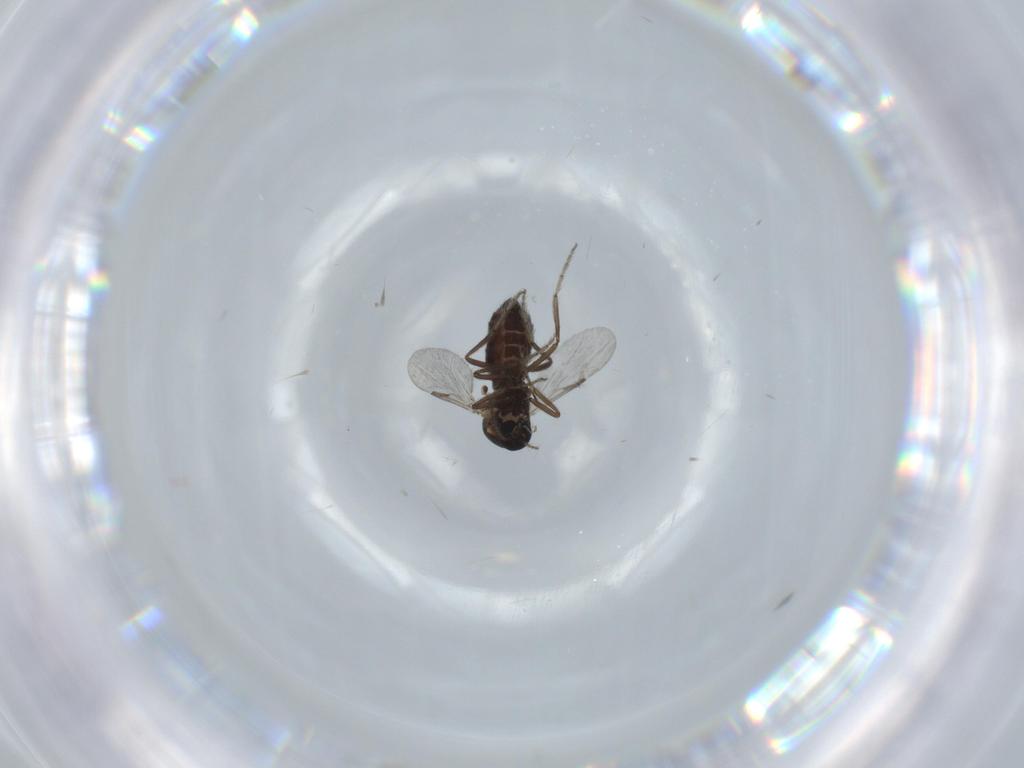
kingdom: Animalia
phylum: Arthropoda
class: Insecta
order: Diptera
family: Ceratopogonidae
